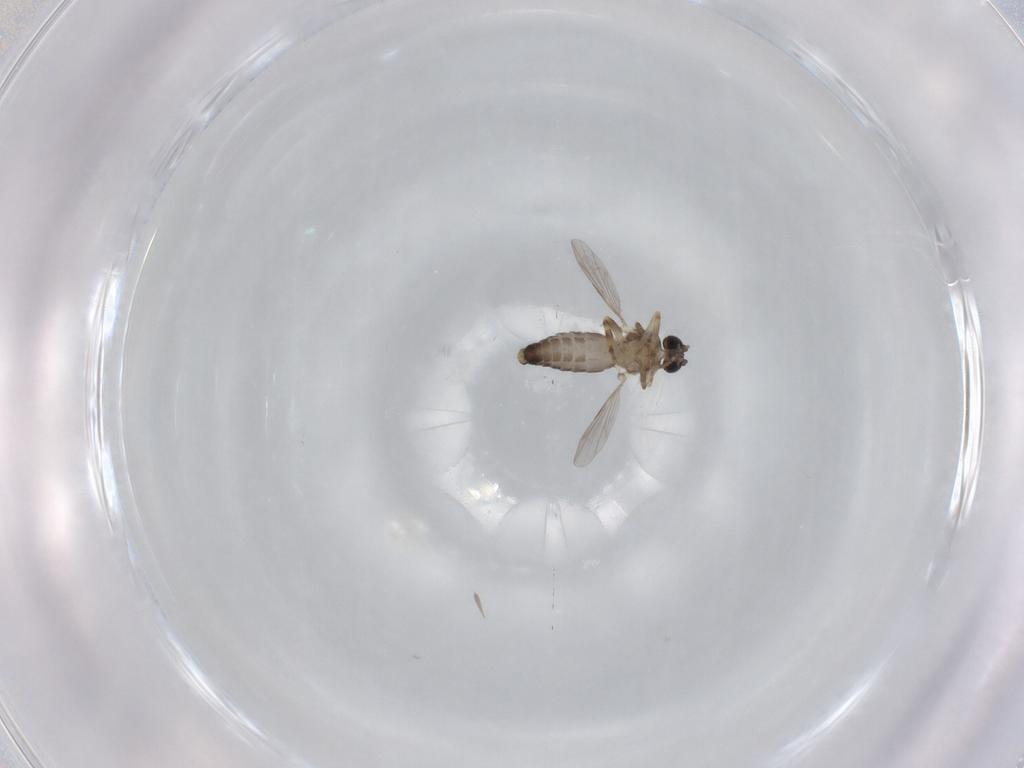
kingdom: Animalia
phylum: Arthropoda
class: Insecta
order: Diptera
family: Ceratopogonidae
